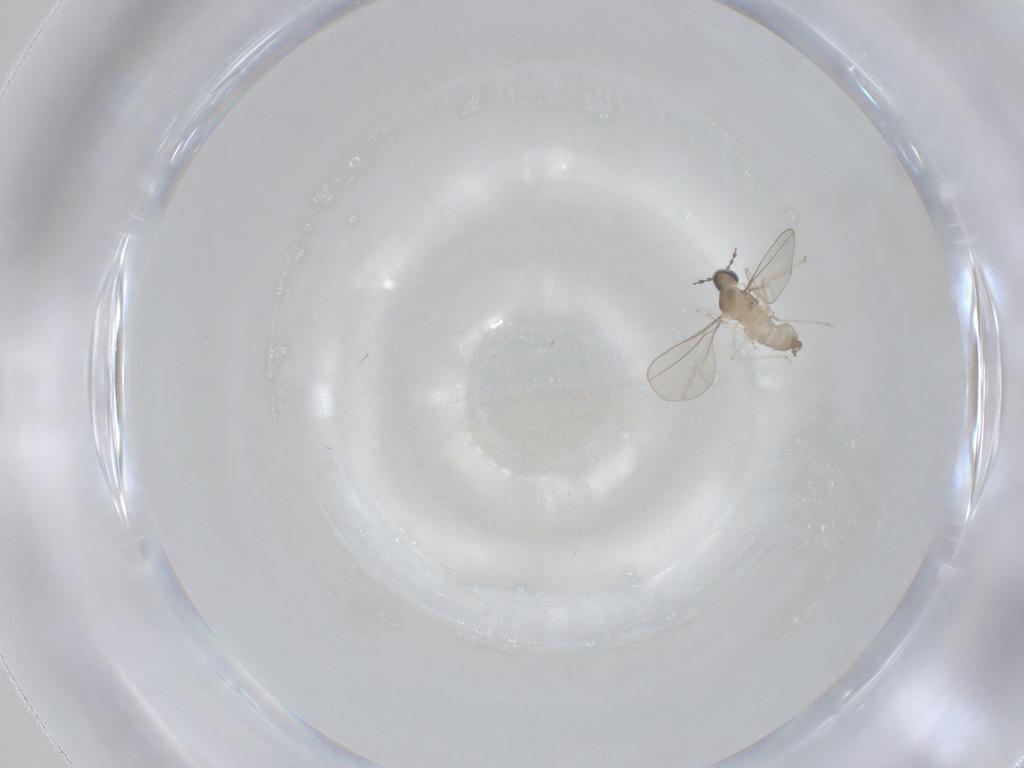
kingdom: Animalia
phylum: Arthropoda
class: Insecta
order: Diptera
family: Cecidomyiidae
